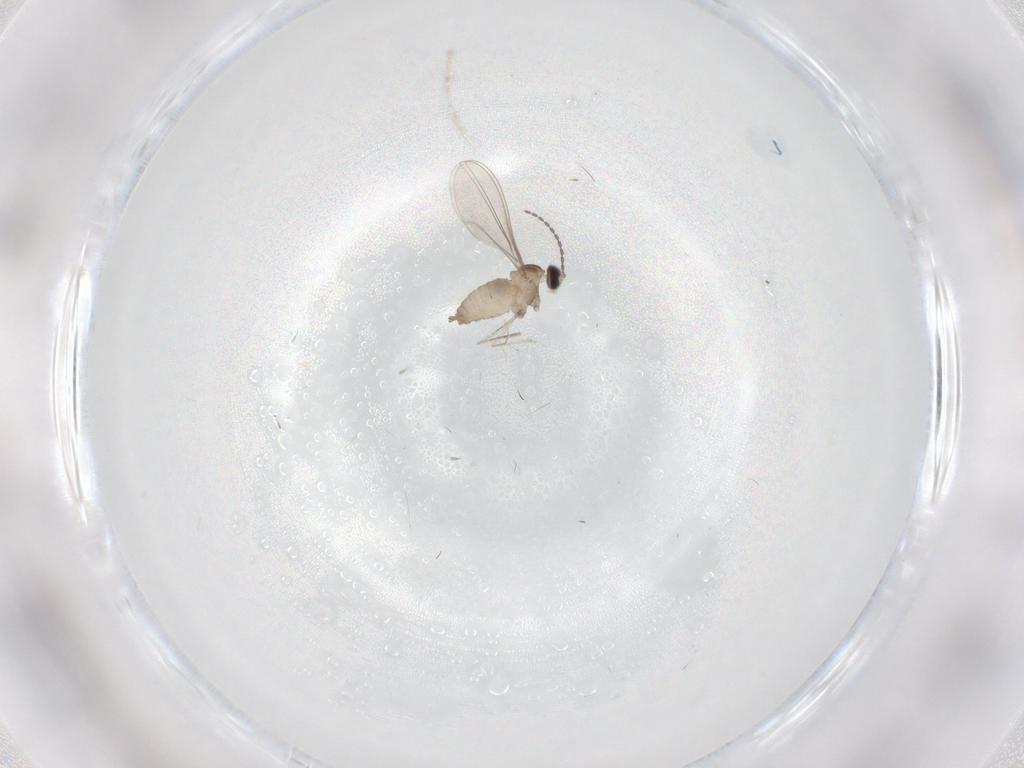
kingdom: Animalia
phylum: Arthropoda
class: Insecta
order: Diptera
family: Cecidomyiidae
